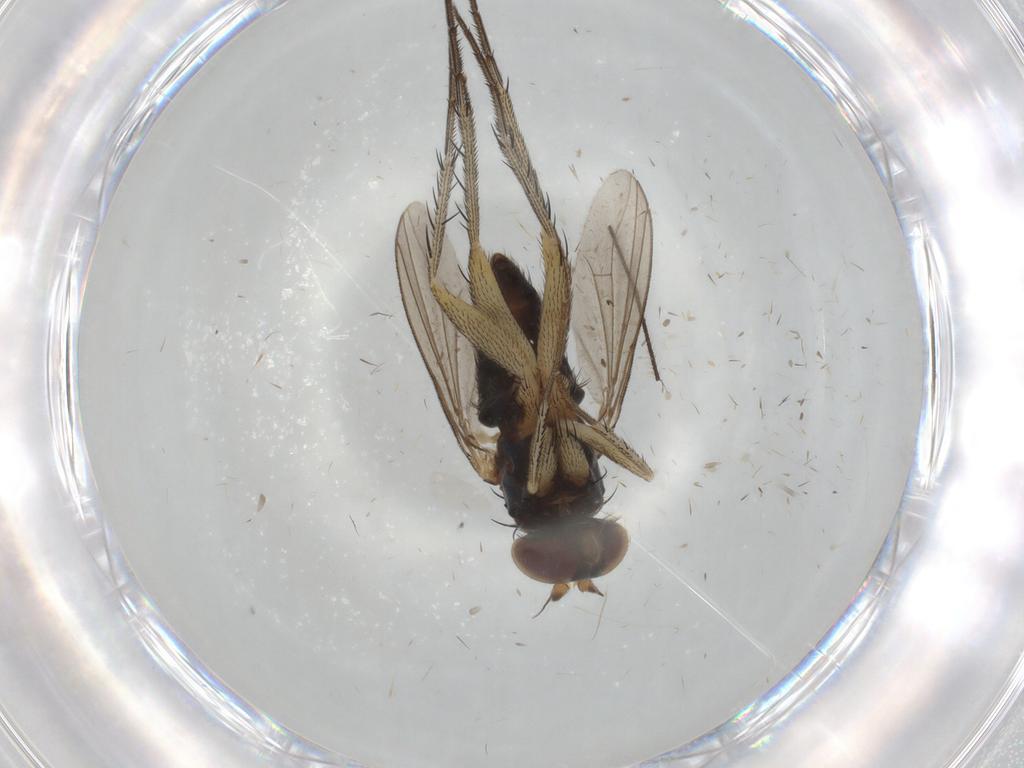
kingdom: Animalia
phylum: Arthropoda
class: Insecta
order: Diptera
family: Dolichopodidae
